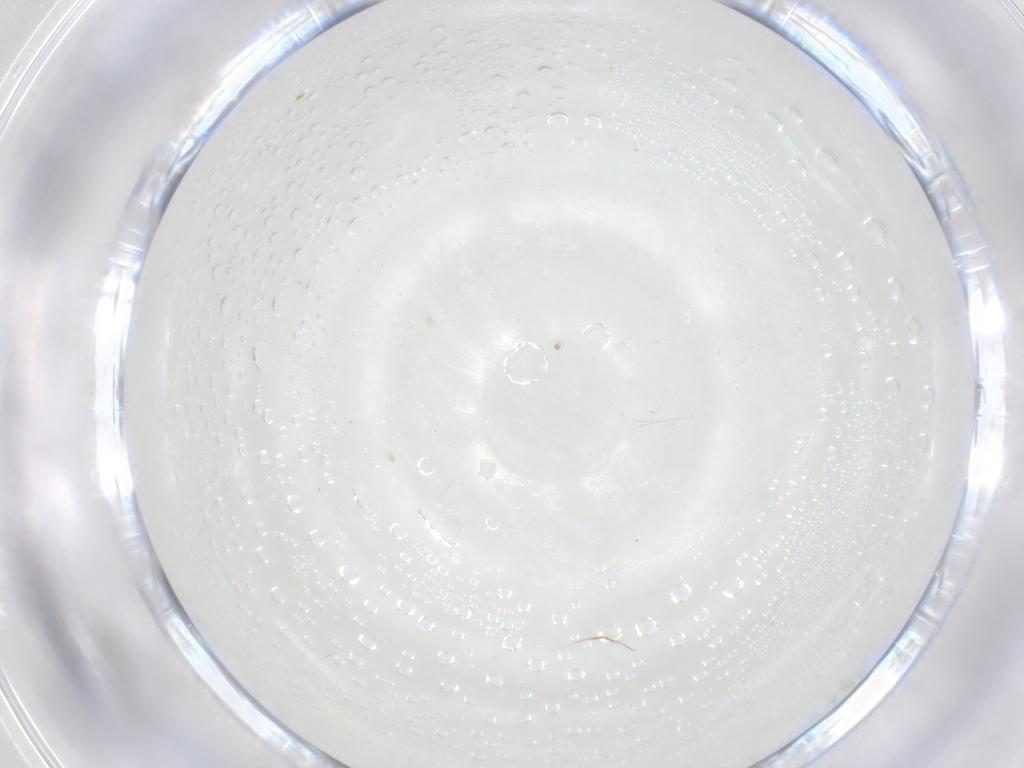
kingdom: Animalia
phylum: Arthropoda
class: Insecta
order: Diptera
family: Cecidomyiidae
